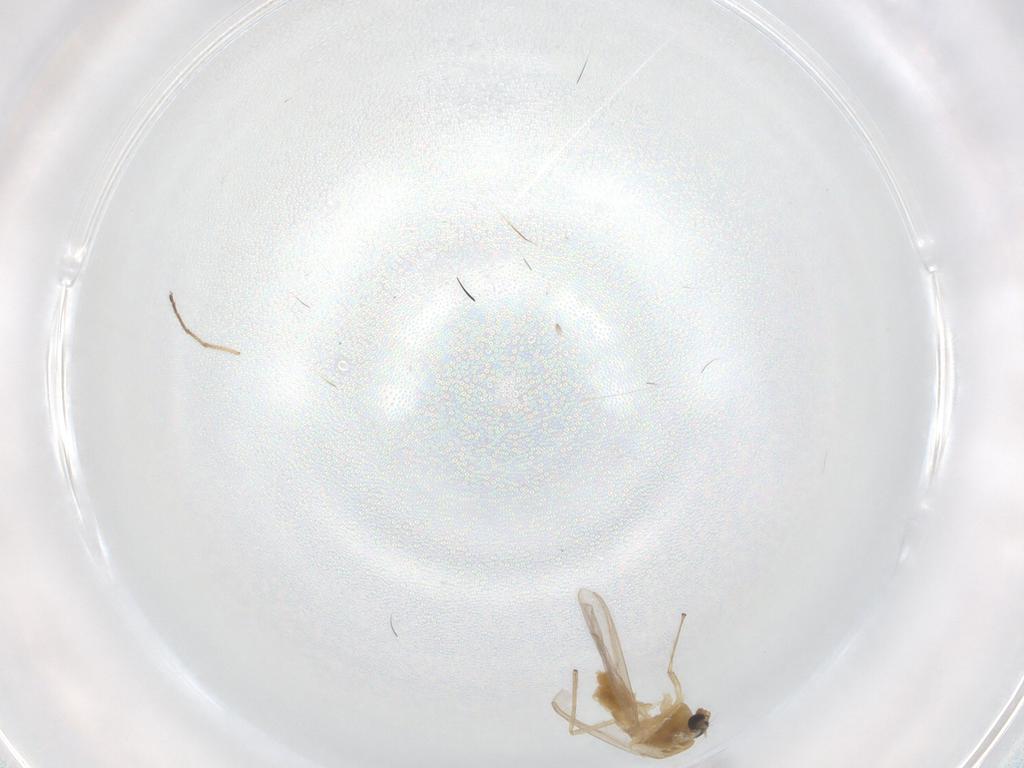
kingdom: Animalia
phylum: Arthropoda
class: Insecta
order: Diptera
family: Chironomidae
